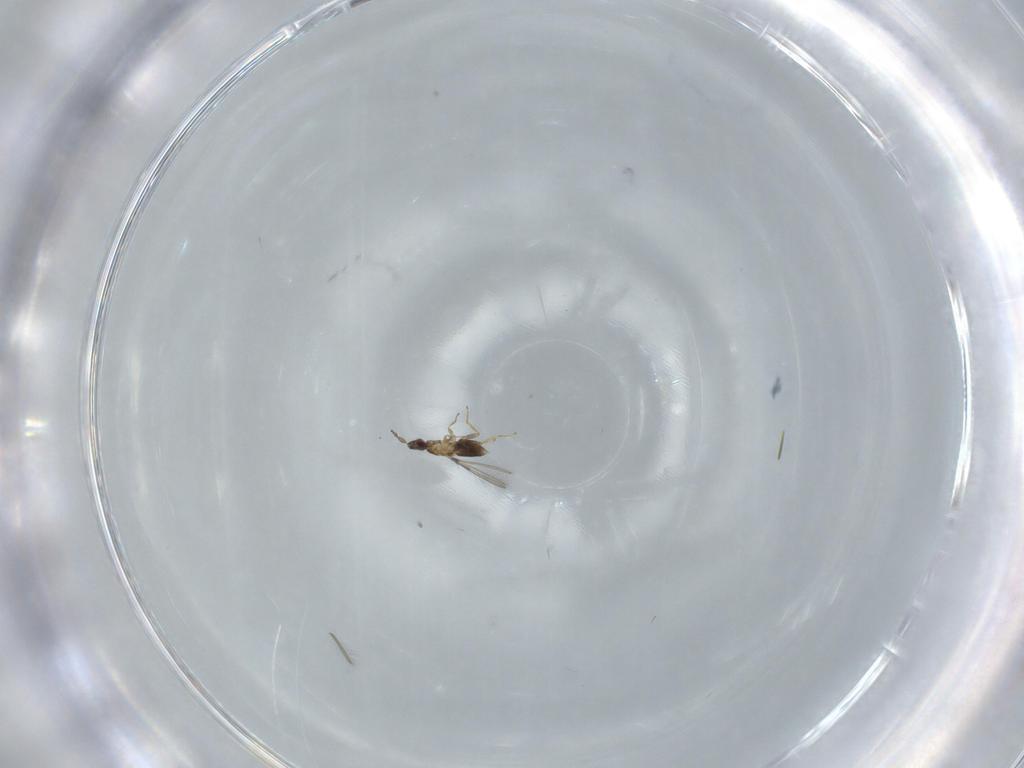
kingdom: Animalia
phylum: Arthropoda
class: Insecta
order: Hymenoptera
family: Mymaridae
